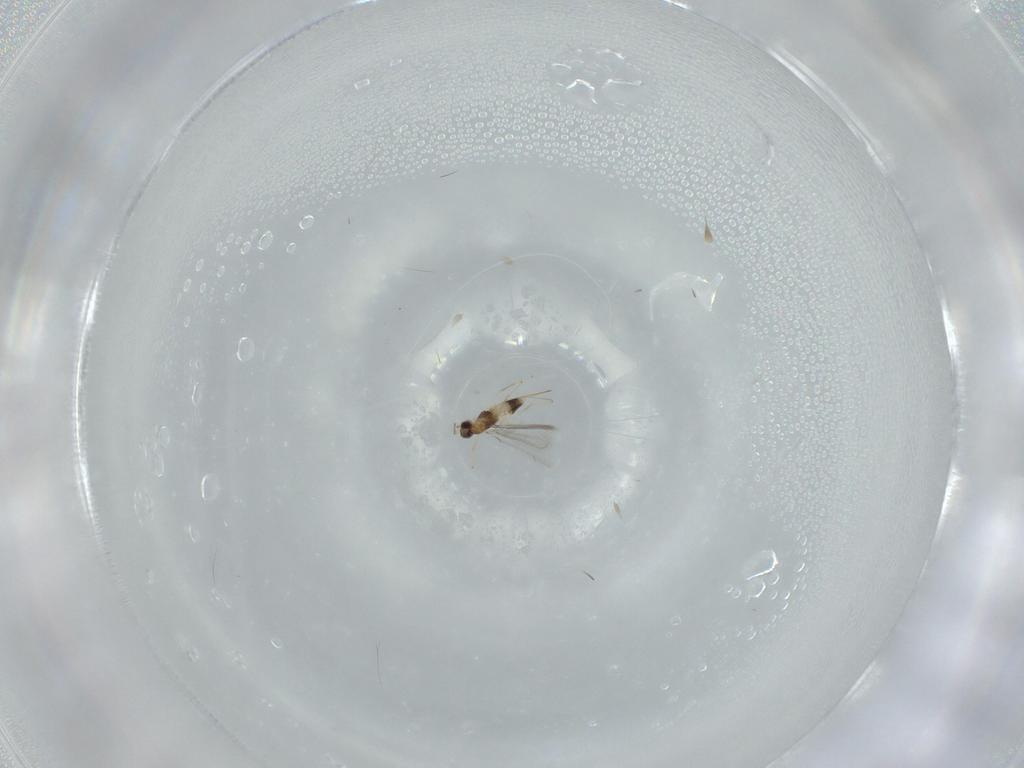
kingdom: Animalia
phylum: Arthropoda
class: Insecta
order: Hymenoptera
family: Mymaridae
